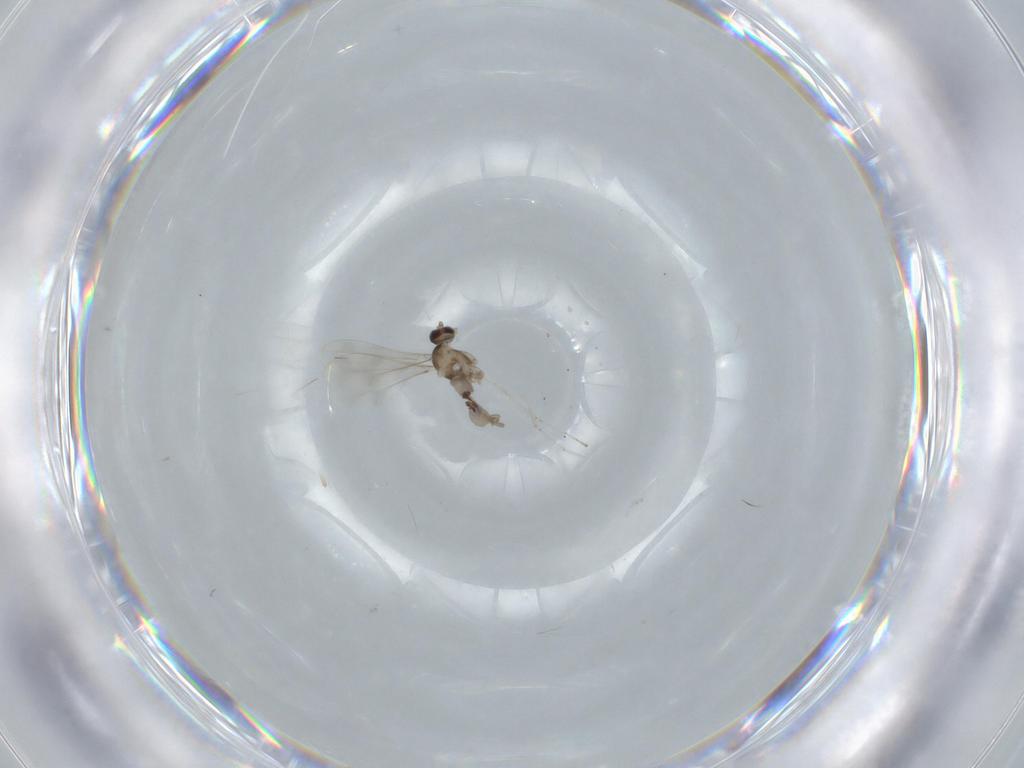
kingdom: Animalia
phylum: Arthropoda
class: Insecta
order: Diptera
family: Cecidomyiidae
